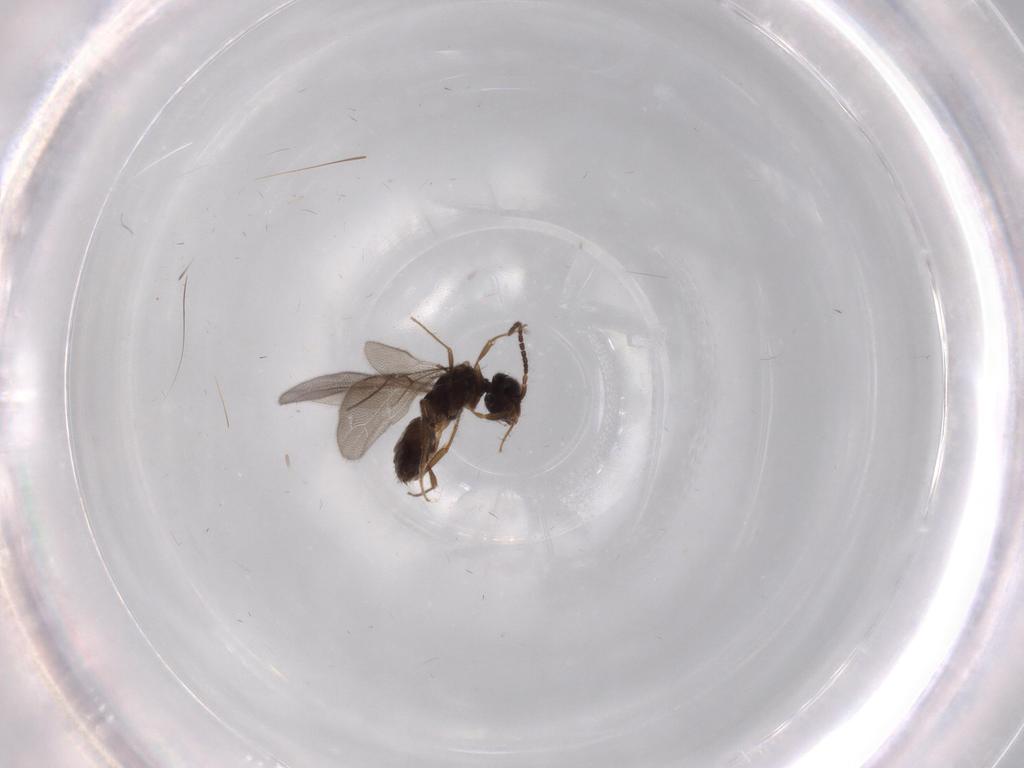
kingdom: Animalia
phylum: Arthropoda
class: Insecta
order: Hymenoptera
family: Bethylidae
